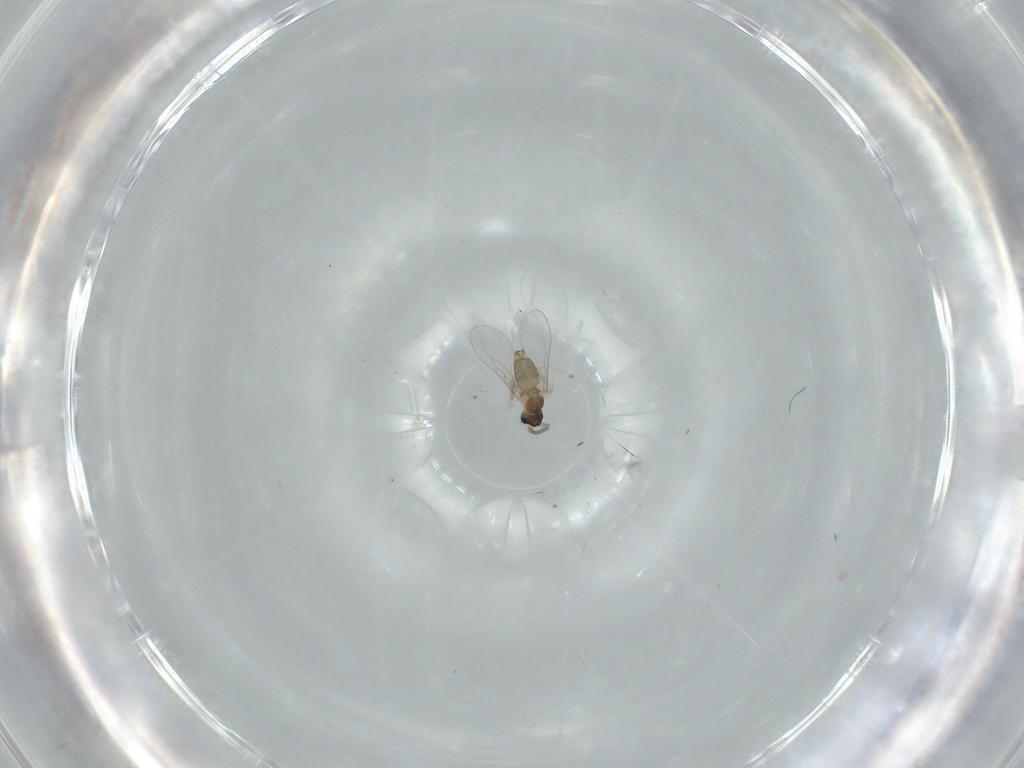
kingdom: Animalia
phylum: Arthropoda
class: Insecta
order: Diptera
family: Cecidomyiidae
